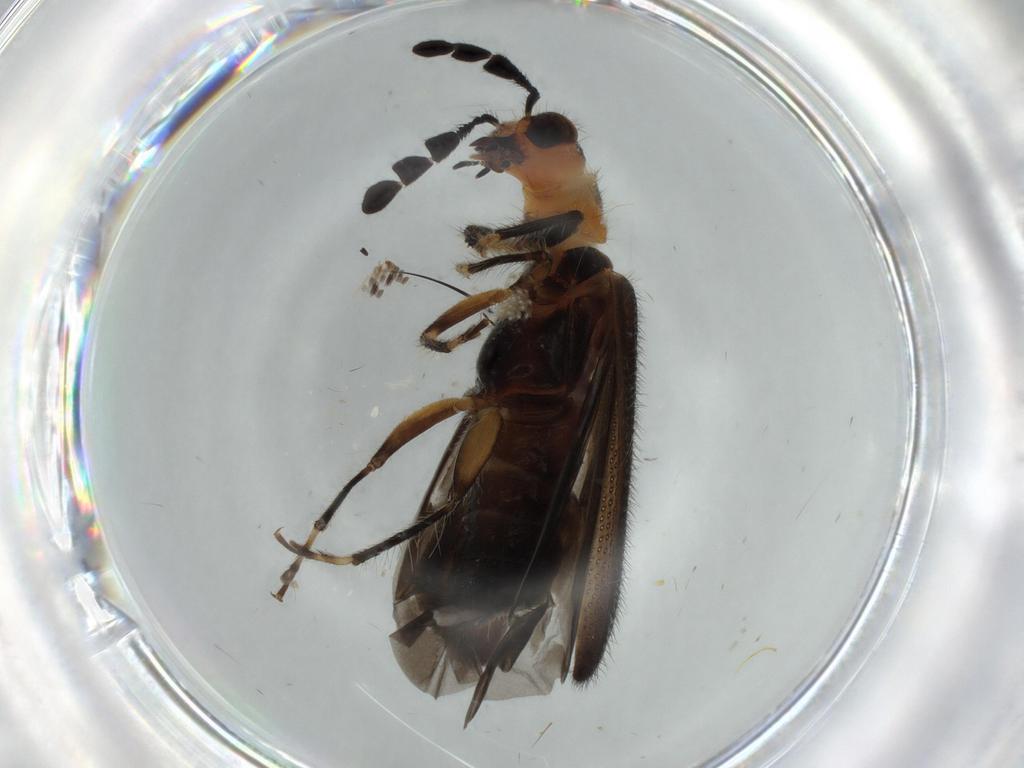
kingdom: Animalia
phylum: Arthropoda
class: Insecta
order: Coleoptera
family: Cleridae
